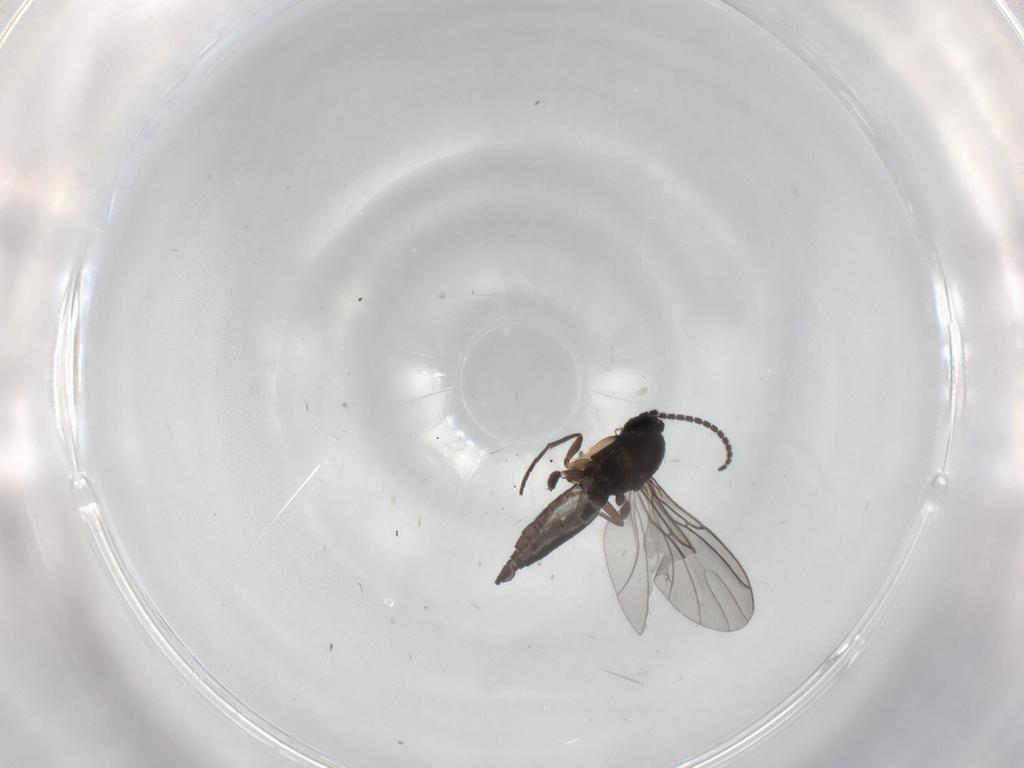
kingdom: Animalia
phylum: Arthropoda
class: Insecta
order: Diptera
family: Sciaridae
